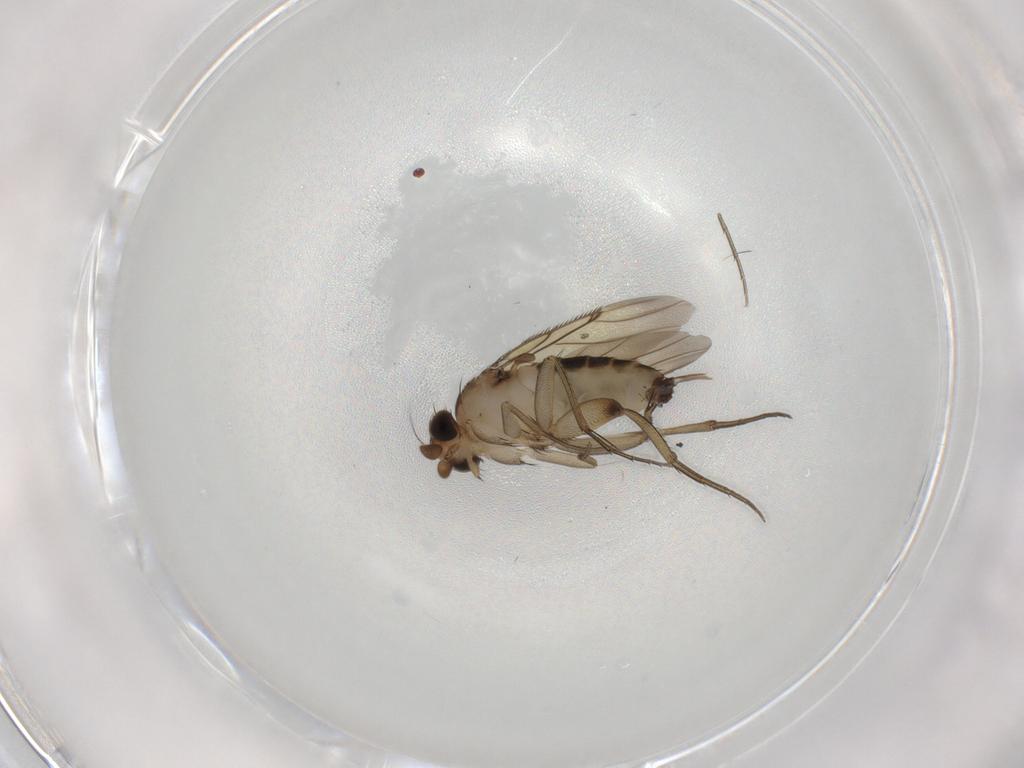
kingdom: Animalia
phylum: Arthropoda
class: Insecta
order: Diptera
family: Phoridae
